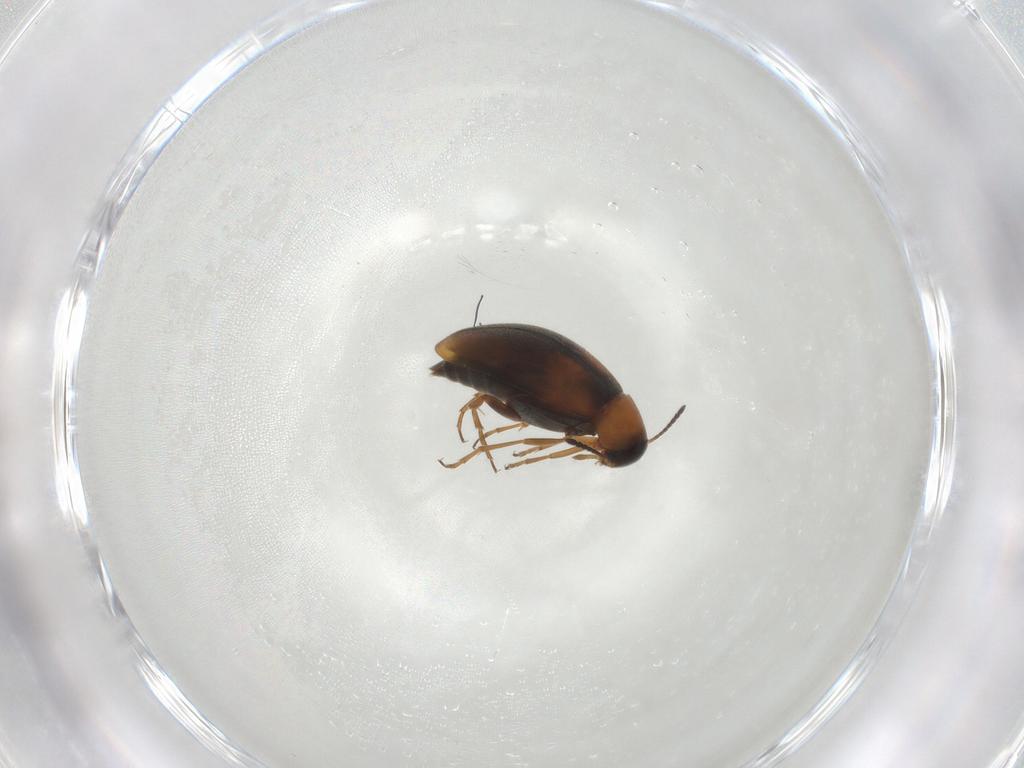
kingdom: Animalia
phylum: Arthropoda
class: Insecta
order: Coleoptera
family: Scraptiidae
